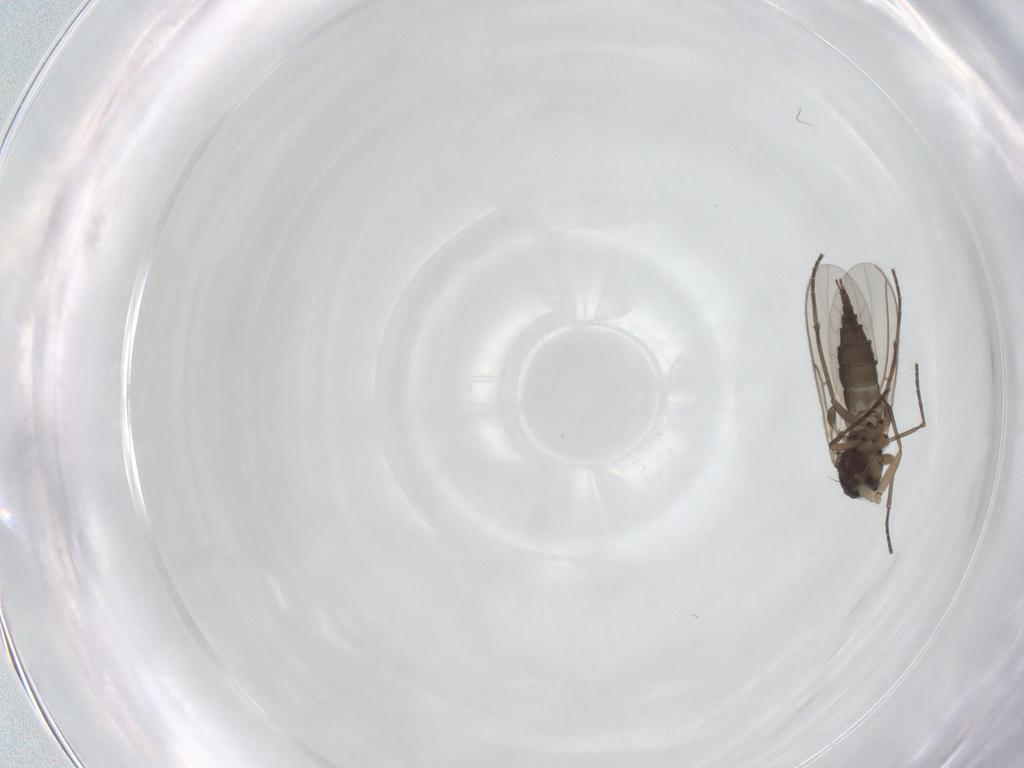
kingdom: Animalia
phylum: Arthropoda
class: Insecta
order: Diptera
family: Sciaridae
